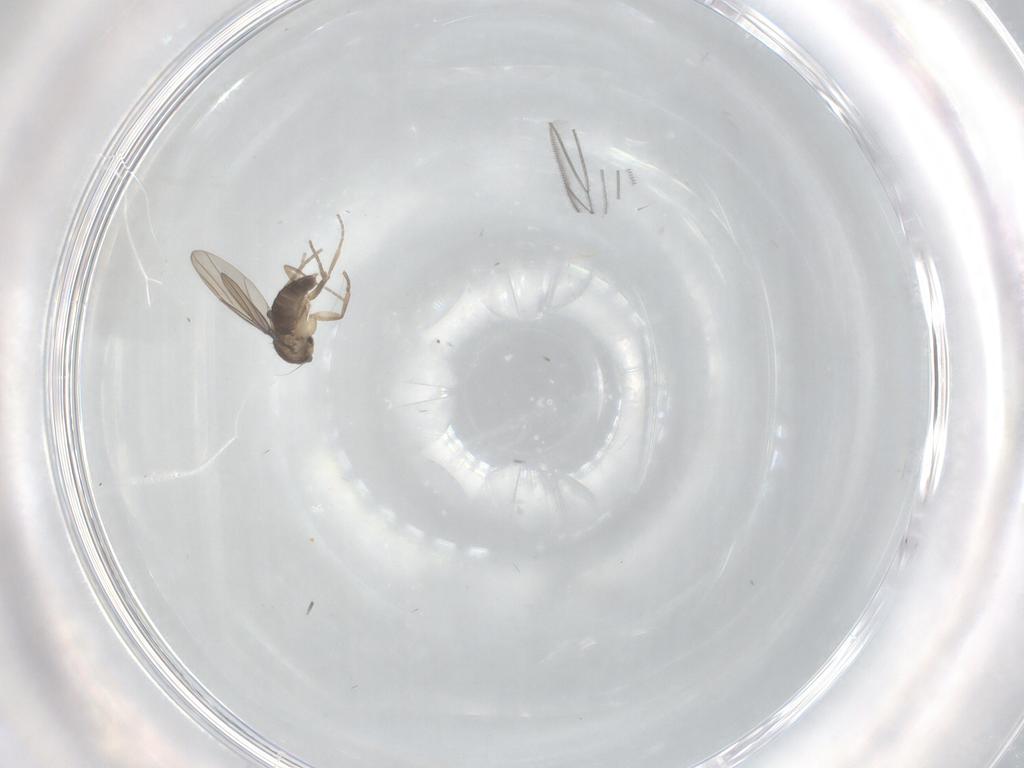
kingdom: Animalia
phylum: Arthropoda
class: Insecta
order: Diptera
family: Phoridae
